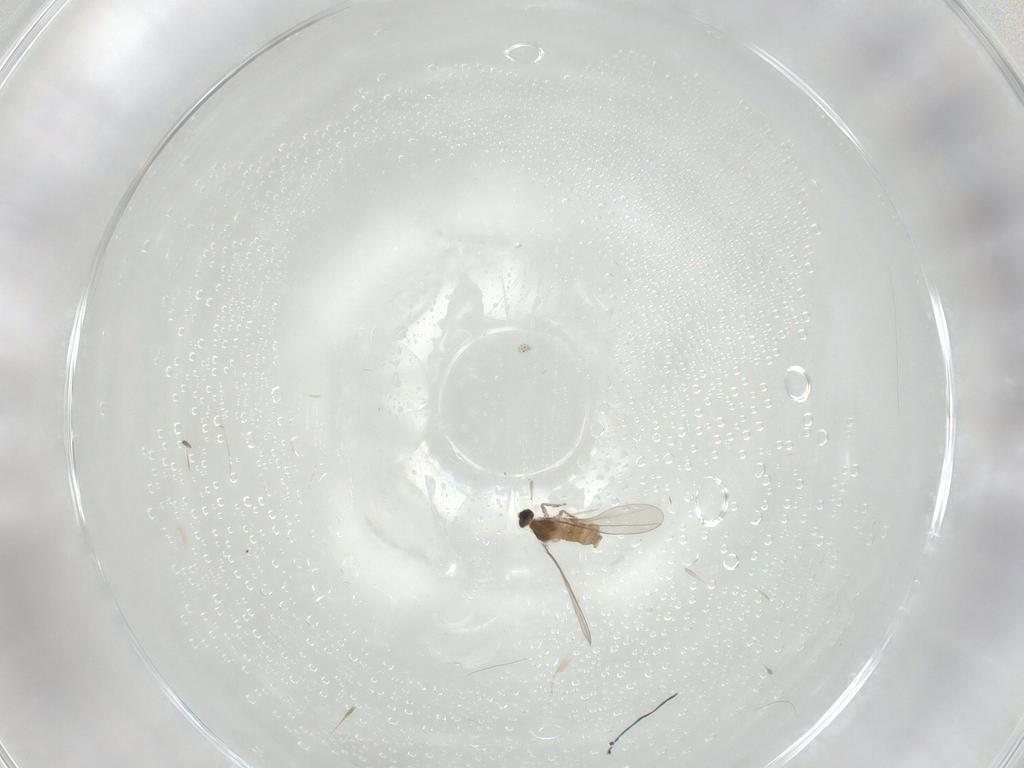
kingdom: Animalia
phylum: Arthropoda
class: Insecta
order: Diptera
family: Cecidomyiidae
